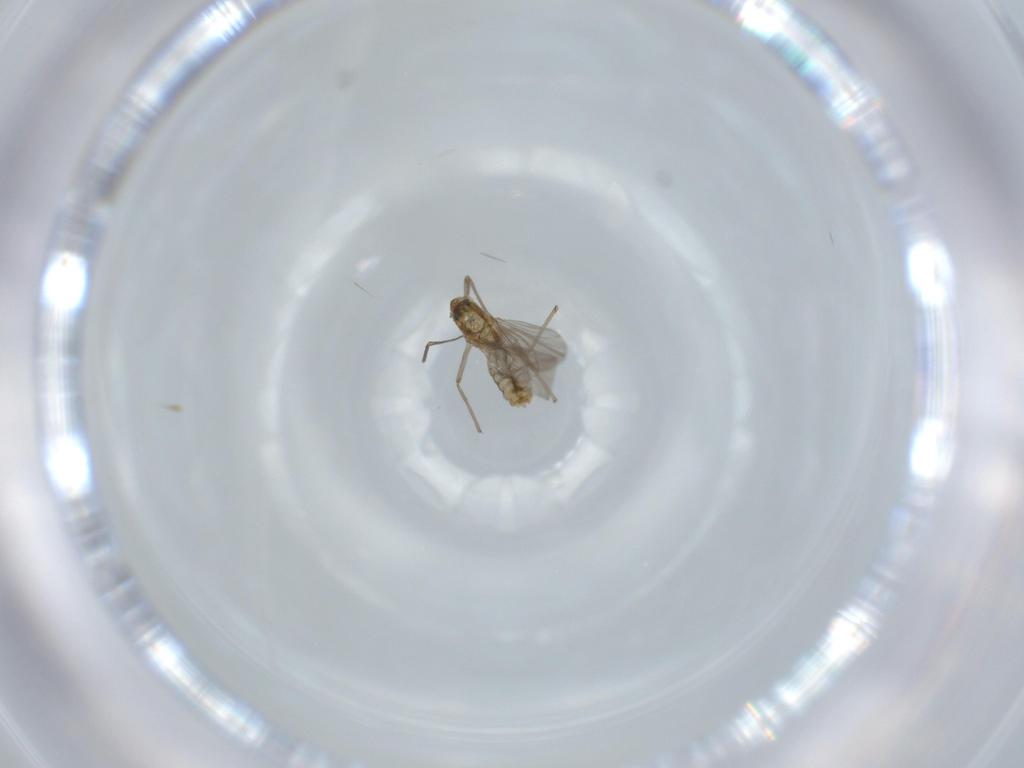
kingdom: Animalia
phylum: Arthropoda
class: Insecta
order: Diptera
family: Chironomidae
